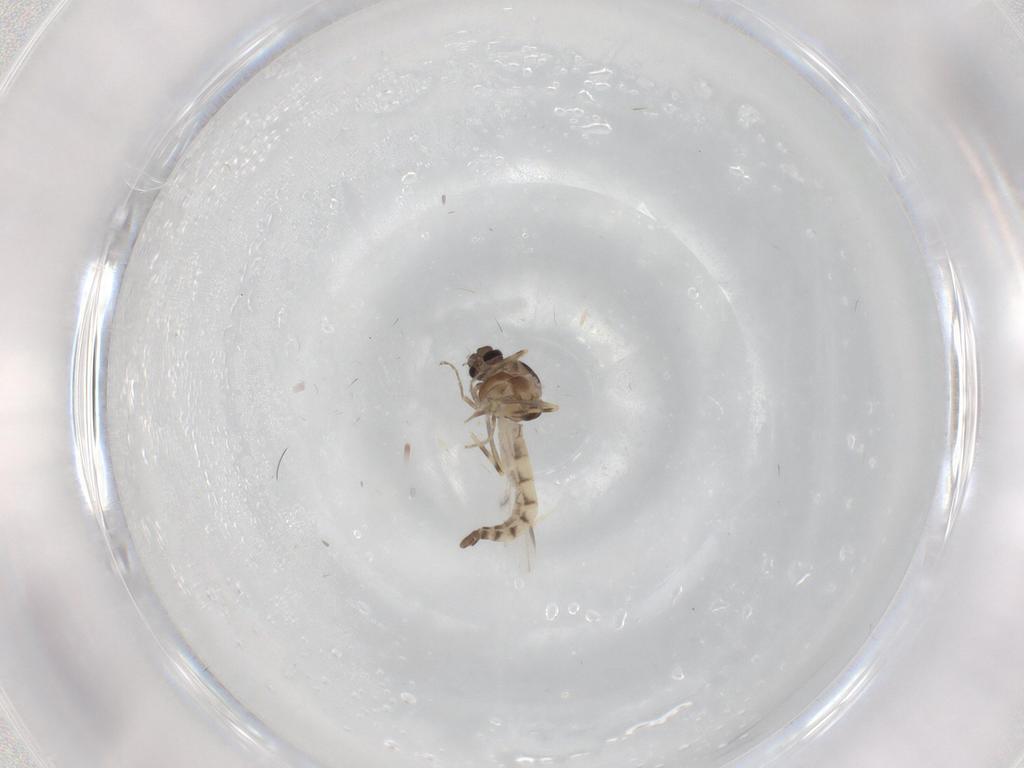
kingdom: Animalia
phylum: Arthropoda
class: Insecta
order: Diptera
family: Ceratopogonidae
